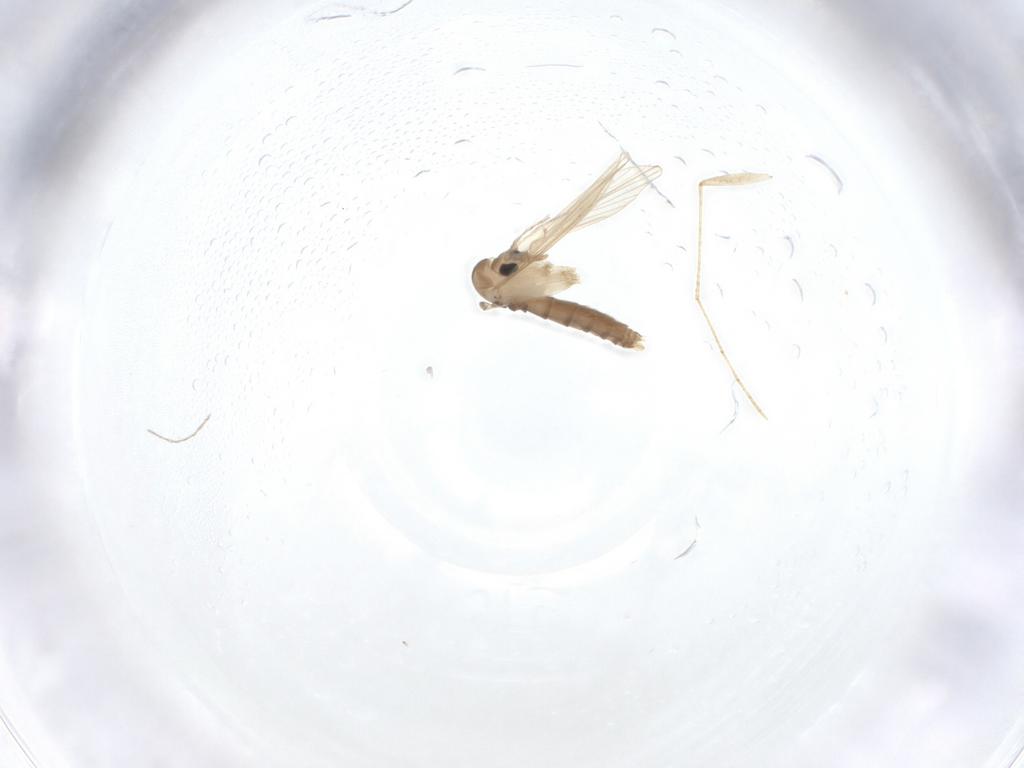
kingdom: Animalia
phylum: Arthropoda
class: Insecta
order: Diptera
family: Psychodidae
